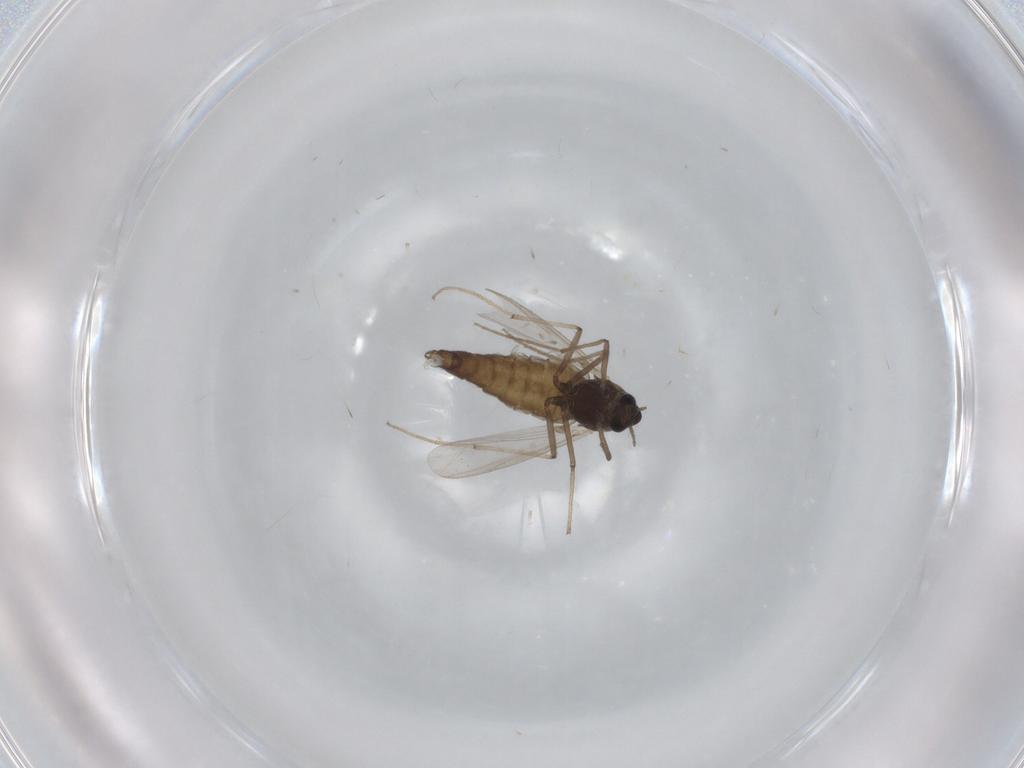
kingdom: Animalia
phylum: Arthropoda
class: Insecta
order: Diptera
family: Chironomidae
